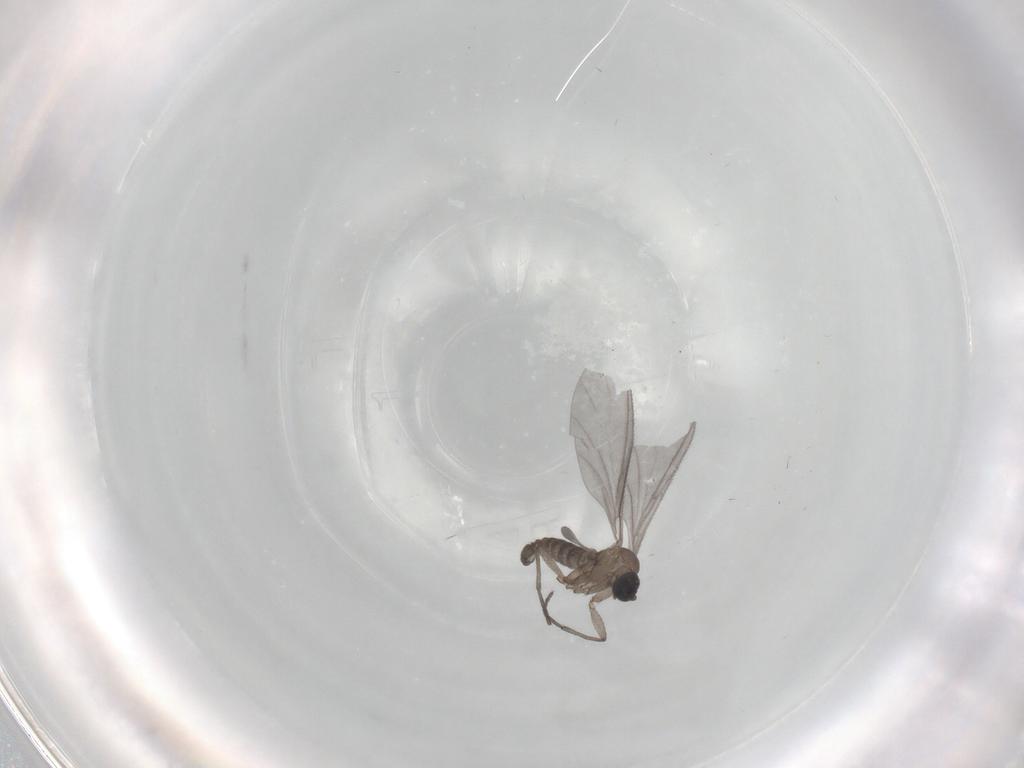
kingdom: Animalia
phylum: Arthropoda
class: Insecta
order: Diptera
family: Sciaridae
